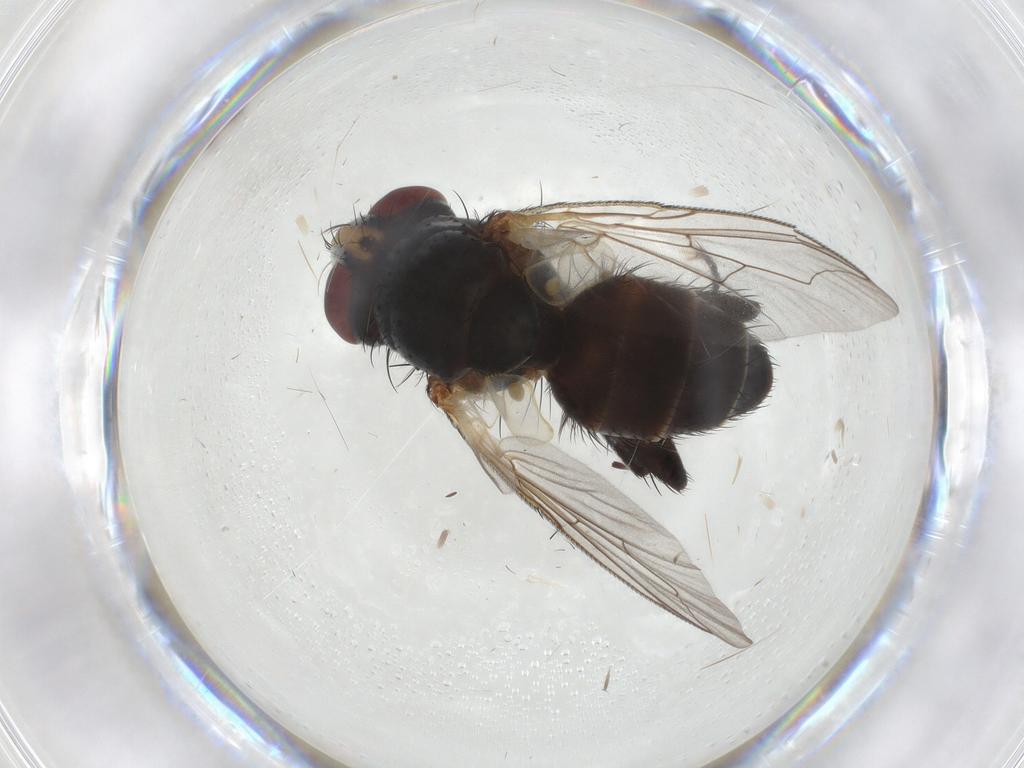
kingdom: Animalia
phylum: Arthropoda
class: Insecta
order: Diptera
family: Sarcophagidae
